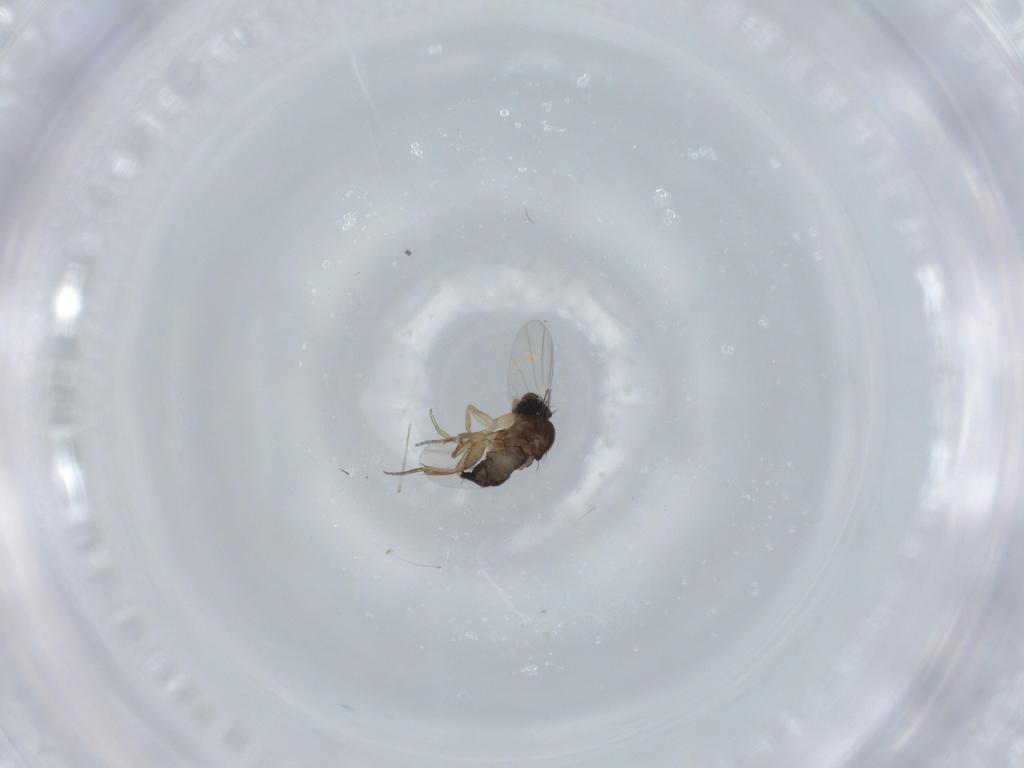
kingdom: Animalia
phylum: Arthropoda
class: Insecta
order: Diptera
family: Phoridae
